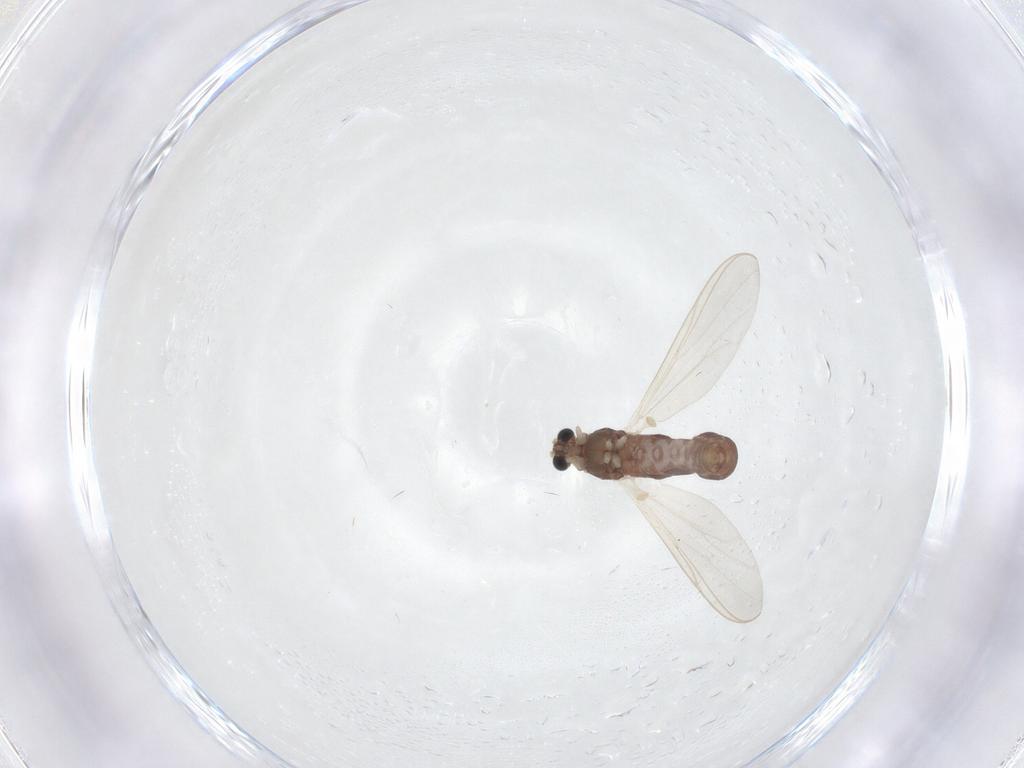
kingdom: Animalia
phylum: Arthropoda
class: Insecta
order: Diptera
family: Chironomidae
